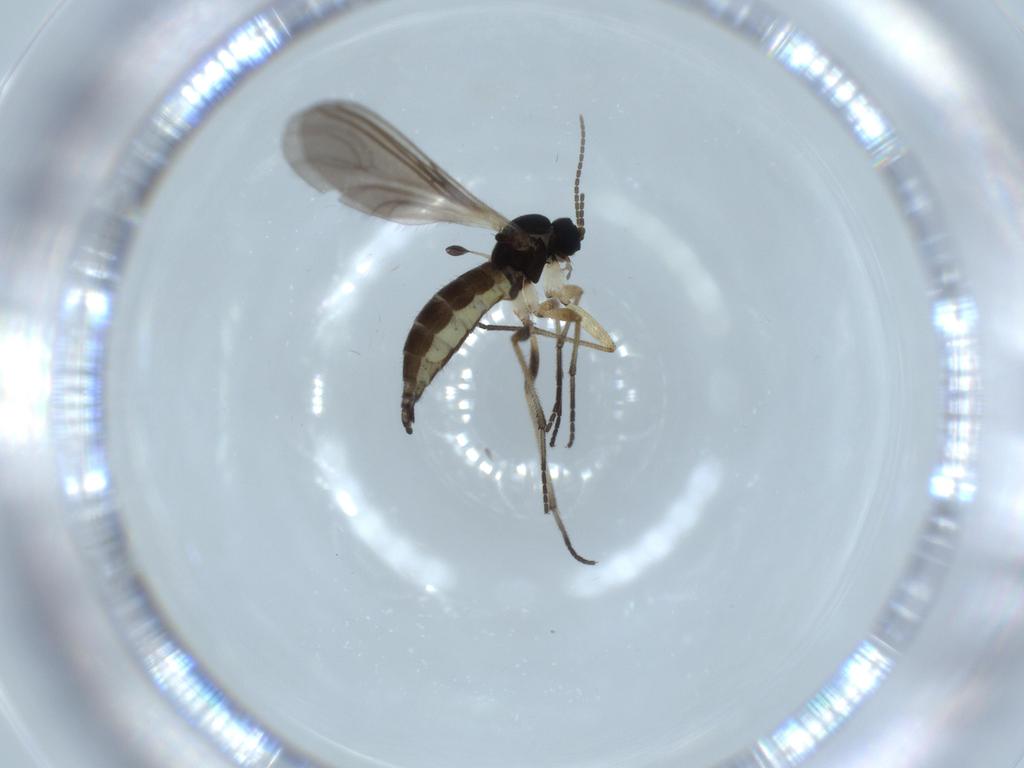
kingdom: Animalia
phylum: Arthropoda
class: Insecta
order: Diptera
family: Sciaridae
